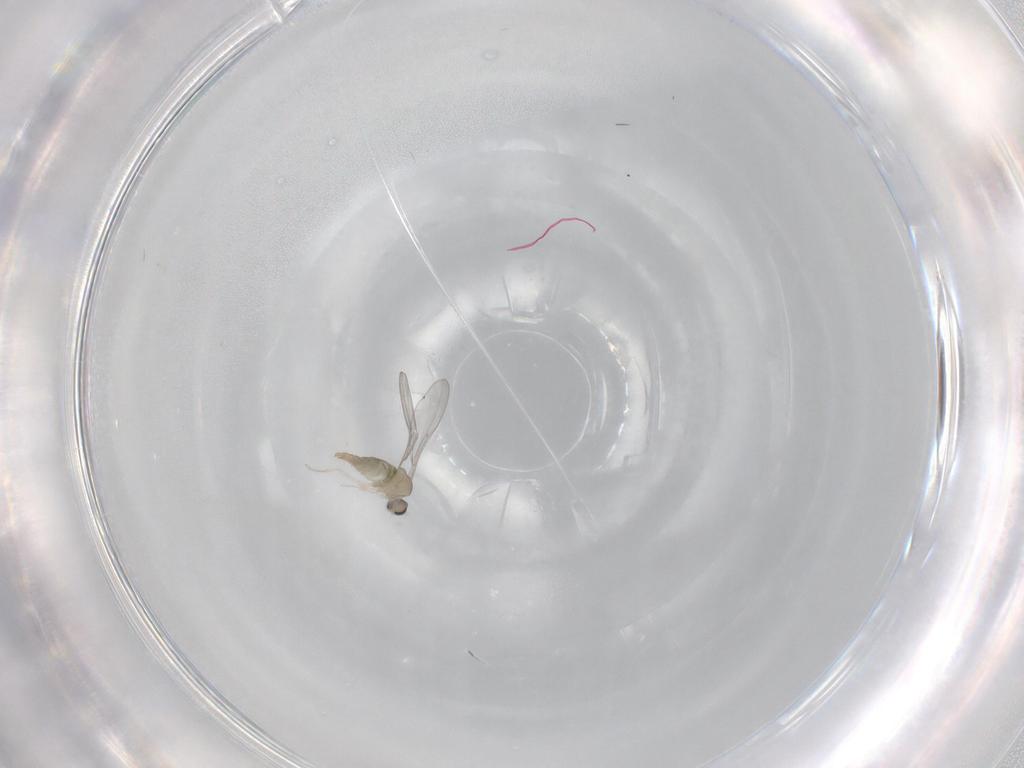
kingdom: Animalia
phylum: Arthropoda
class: Insecta
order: Diptera
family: Cecidomyiidae
